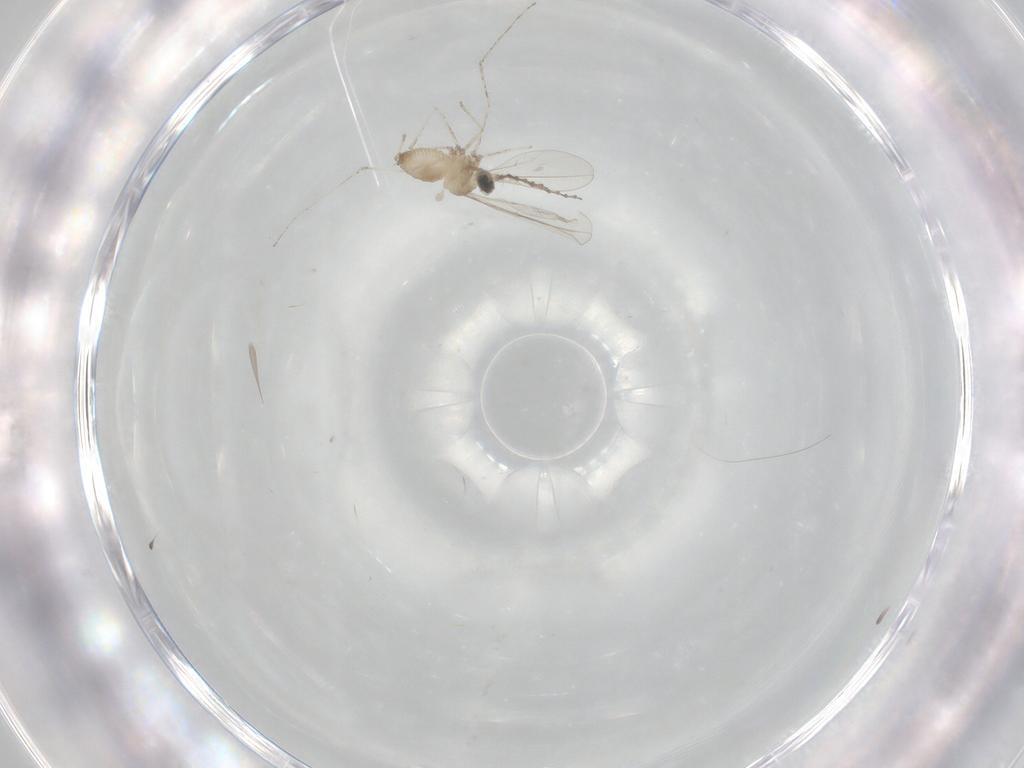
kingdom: Animalia
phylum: Arthropoda
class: Insecta
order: Diptera
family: Cecidomyiidae
